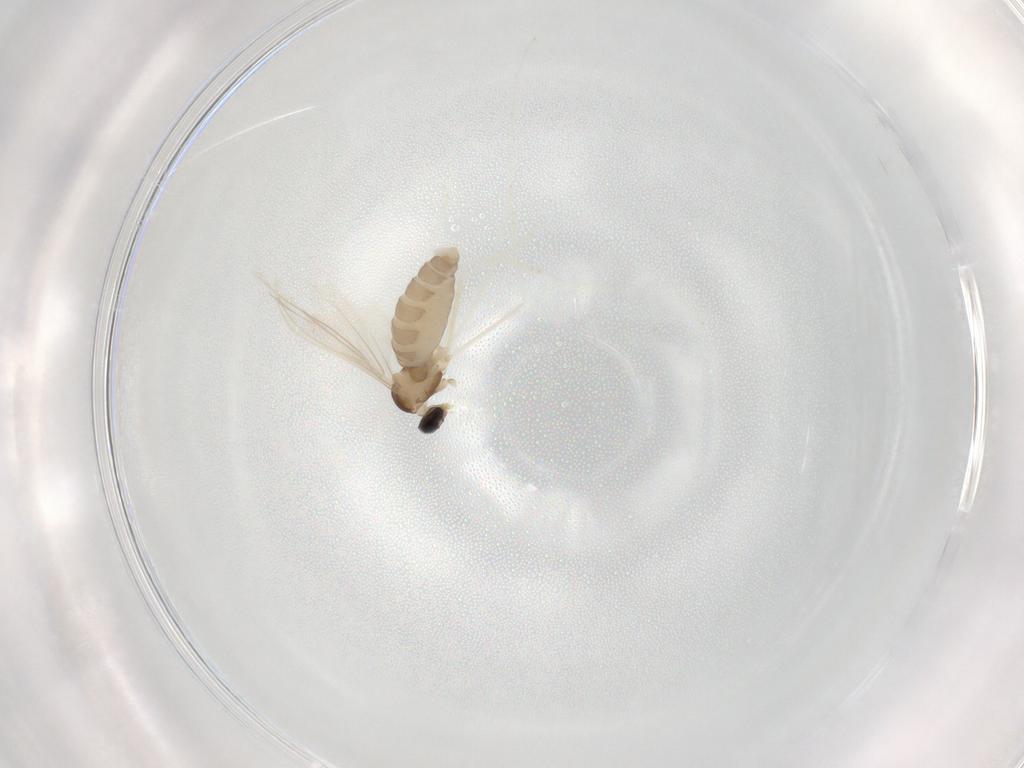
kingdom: Animalia
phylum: Arthropoda
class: Insecta
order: Diptera
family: Cecidomyiidae
